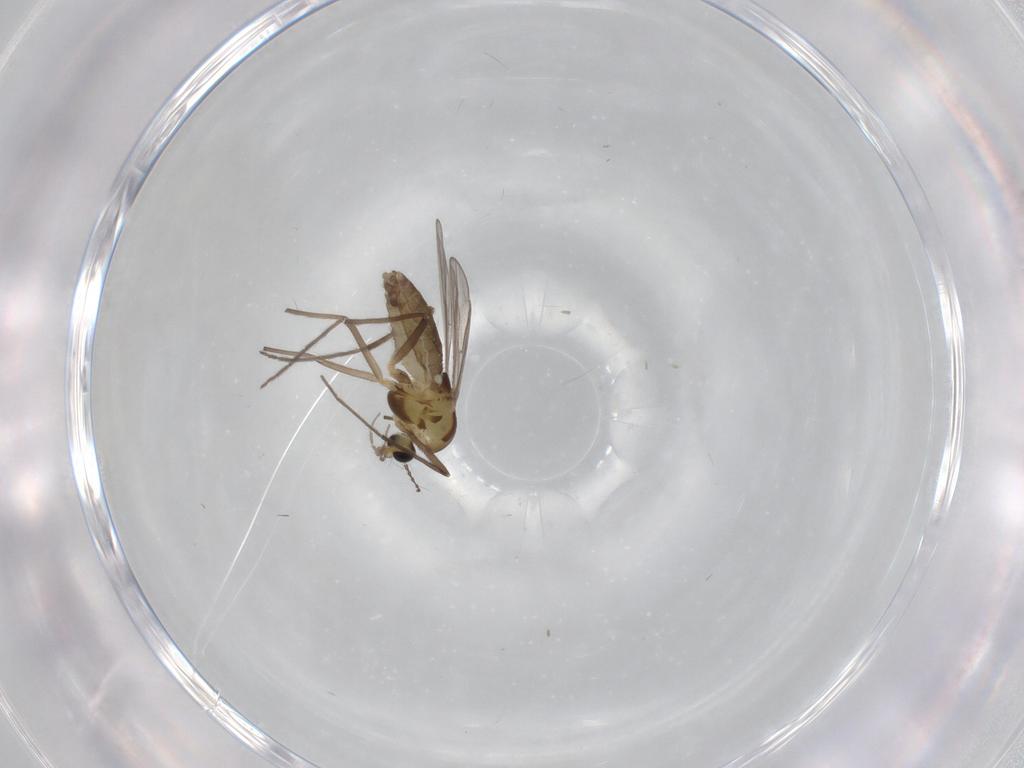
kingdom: Animalia
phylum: Arthropoda
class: Insecta
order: Diptera
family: Chironomidae
